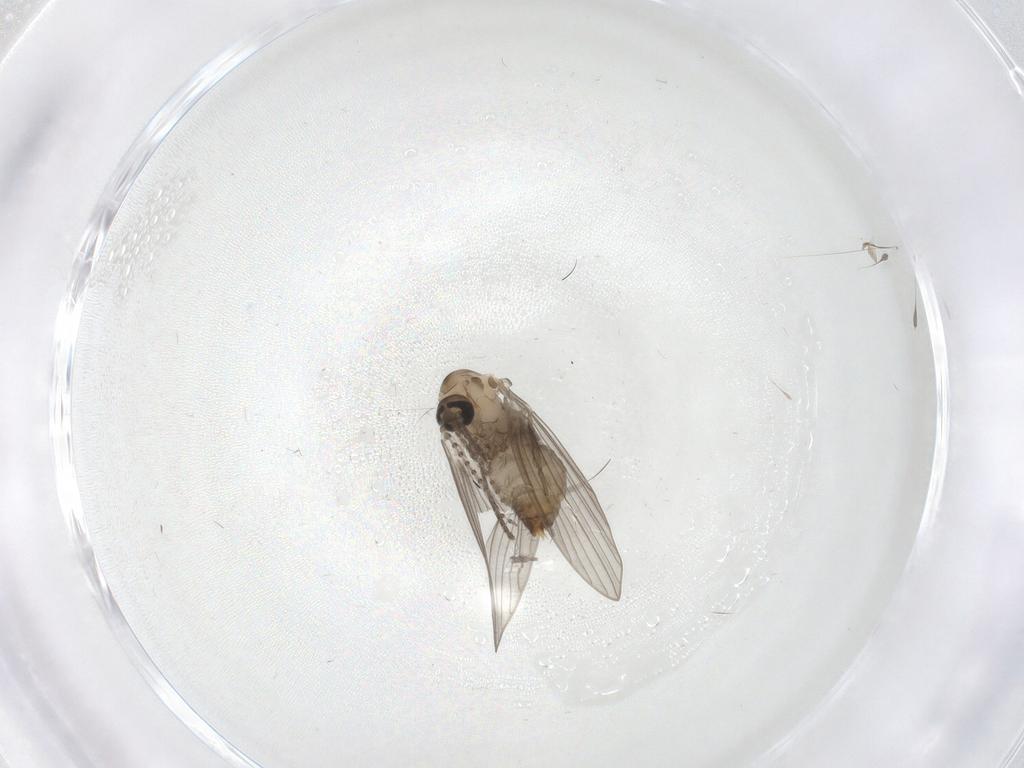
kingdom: Animalia
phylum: Arthropoda
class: Insecta
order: Diptera
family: Psychodidae
